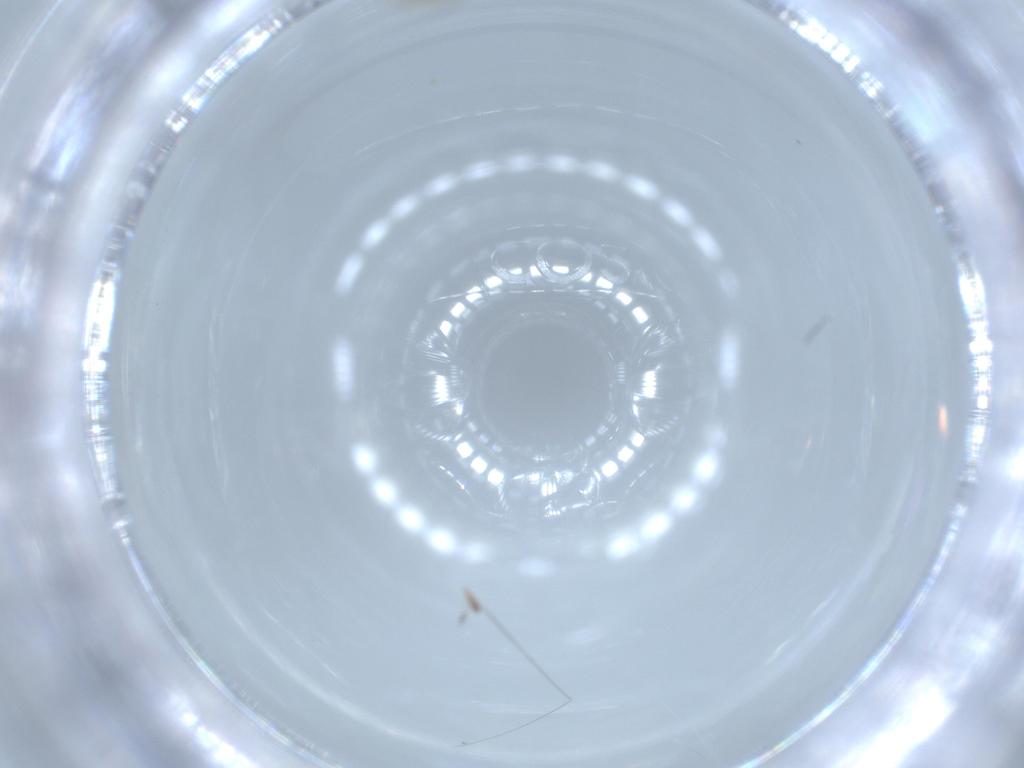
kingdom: Animalia
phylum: Arthropoda
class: Insecta
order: Diptera
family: Cecidomyiidae
